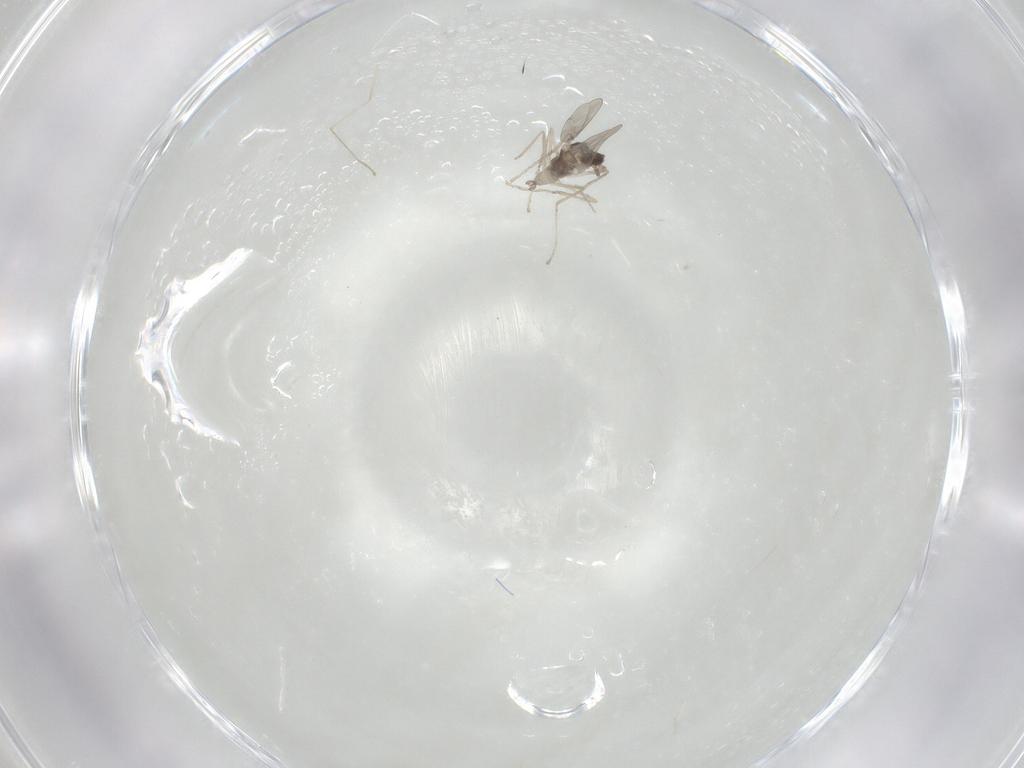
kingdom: Animalia
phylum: Arthropoda
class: Insecta
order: Diptera
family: Cecidomyiidae
